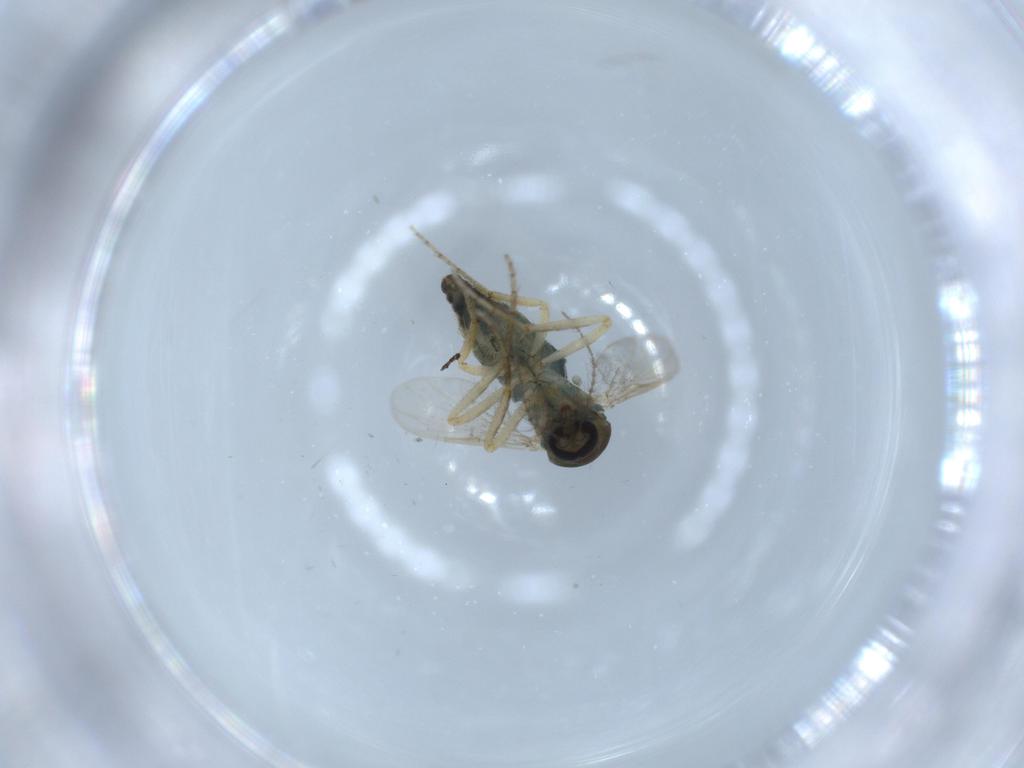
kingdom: Animalia
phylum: Arthropoda
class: Insecta
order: Diptera
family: Ceratopogonidae
